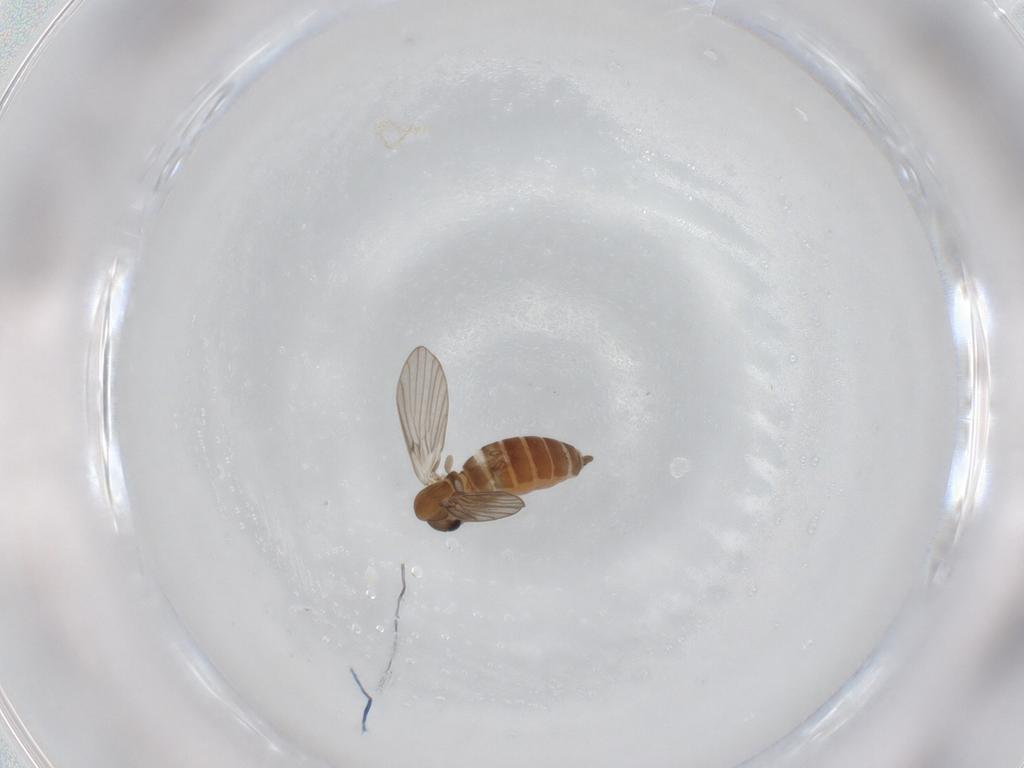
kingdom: Animalia
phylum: Arthropoda
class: Insecta
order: Diptera
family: Psychodidae
